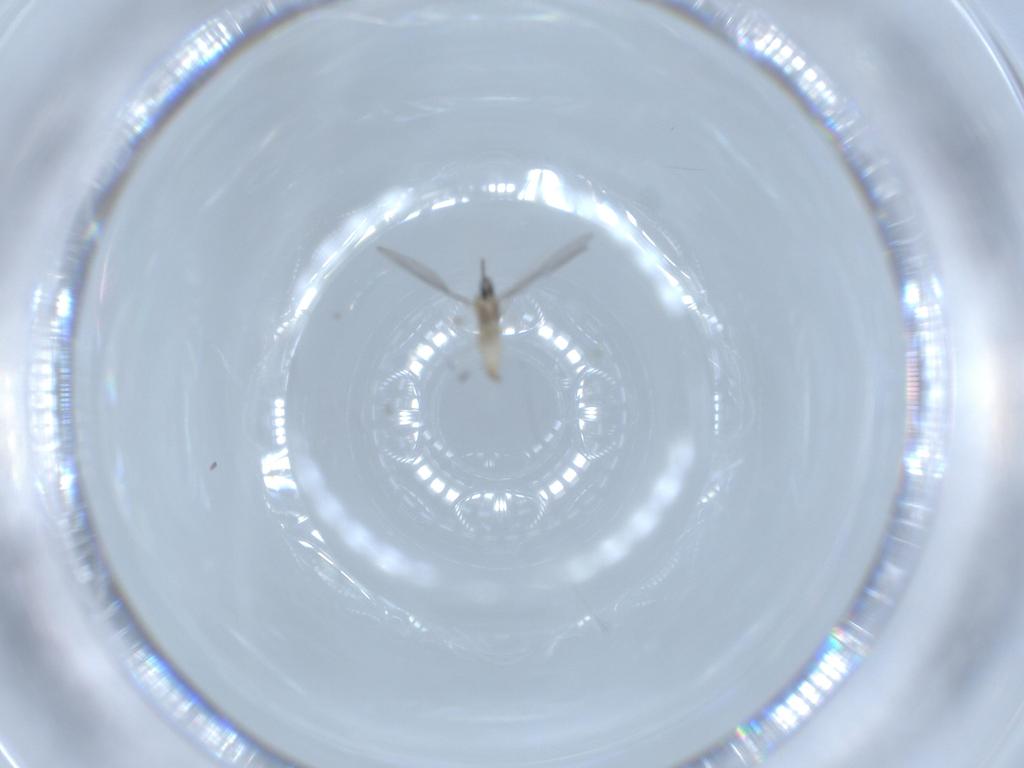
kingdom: Animalia
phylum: Arthropoda
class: Insecta
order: Diptera
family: Cecidomyiidae
